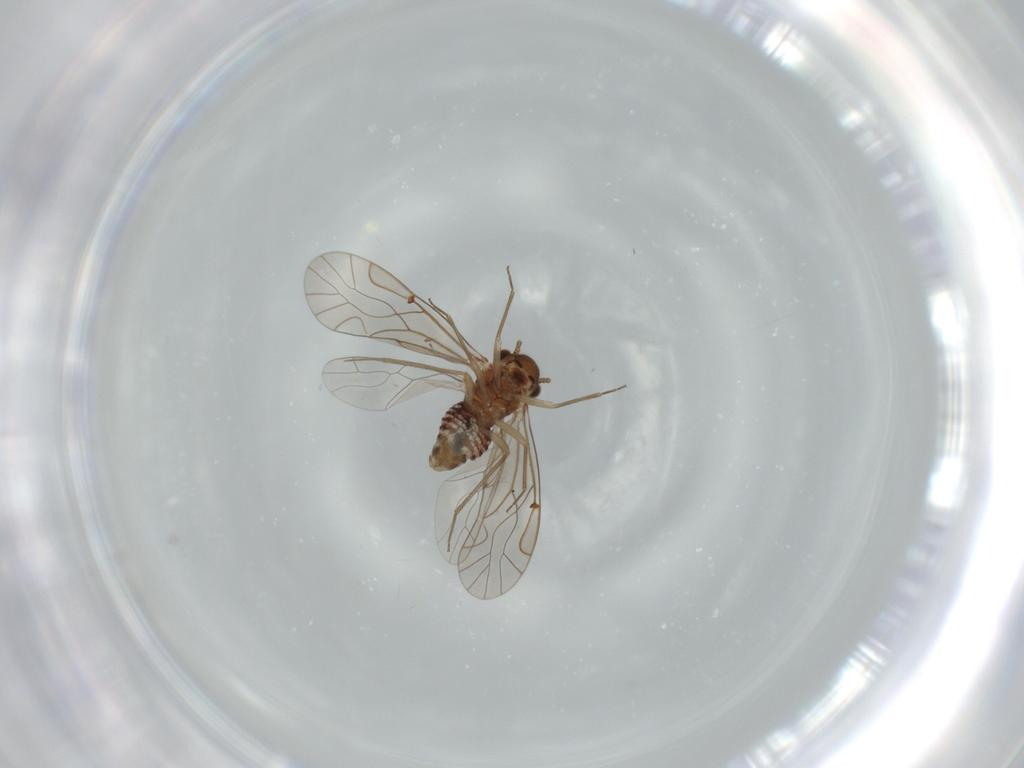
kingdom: Animalia
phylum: Arthropoda
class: Insecta
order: Psocodea
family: Lachesillidae
